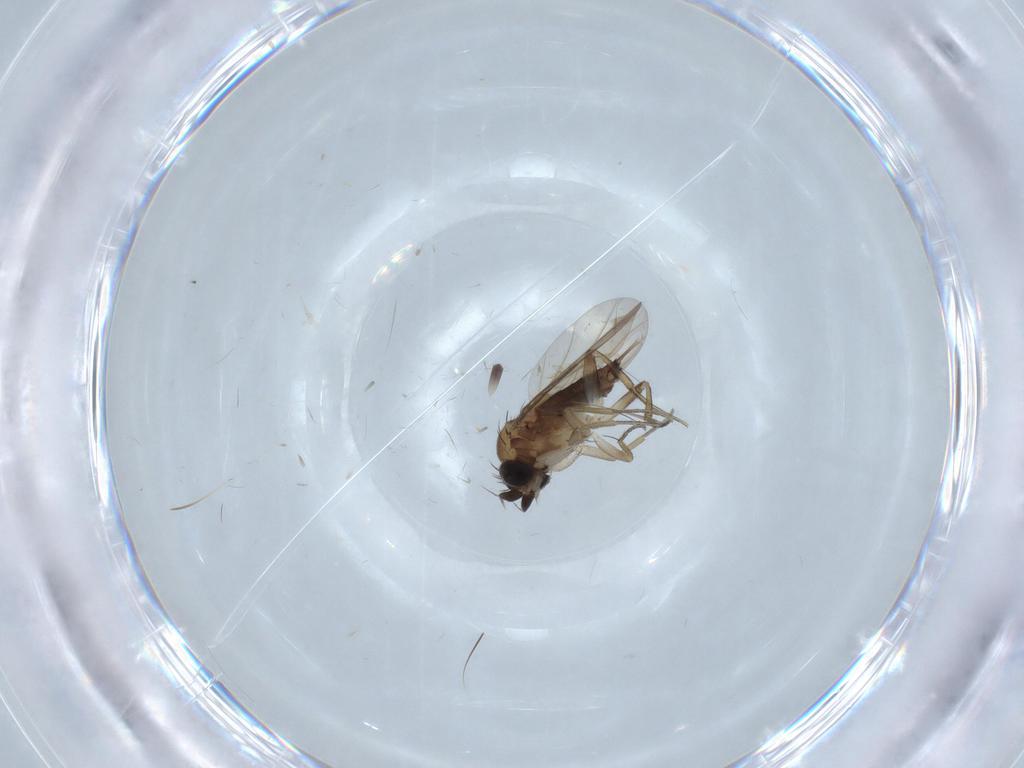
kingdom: Animalia
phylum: Arthropoda
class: Insecta
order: Diptera
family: Phoridae
